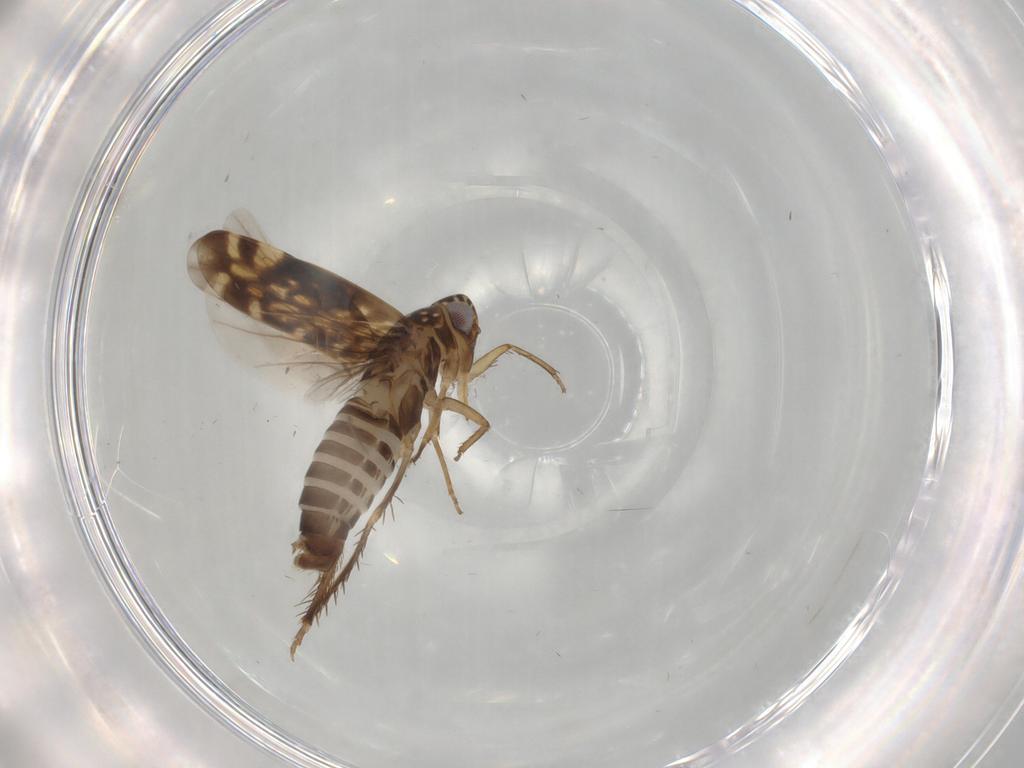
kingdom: Animalia
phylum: Arthropoda
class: Insecta
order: Hemiptera
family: Cicadellidae
